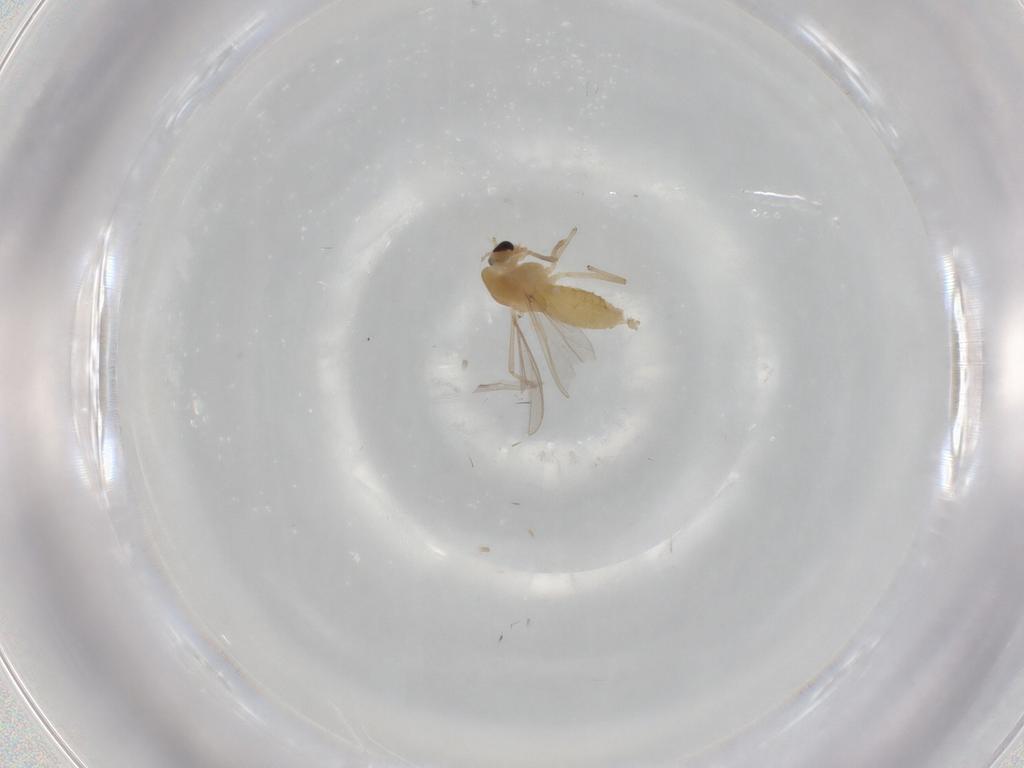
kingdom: Animalia
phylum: Arthropoda
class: Insecta
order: Diptera
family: Chironomidae
